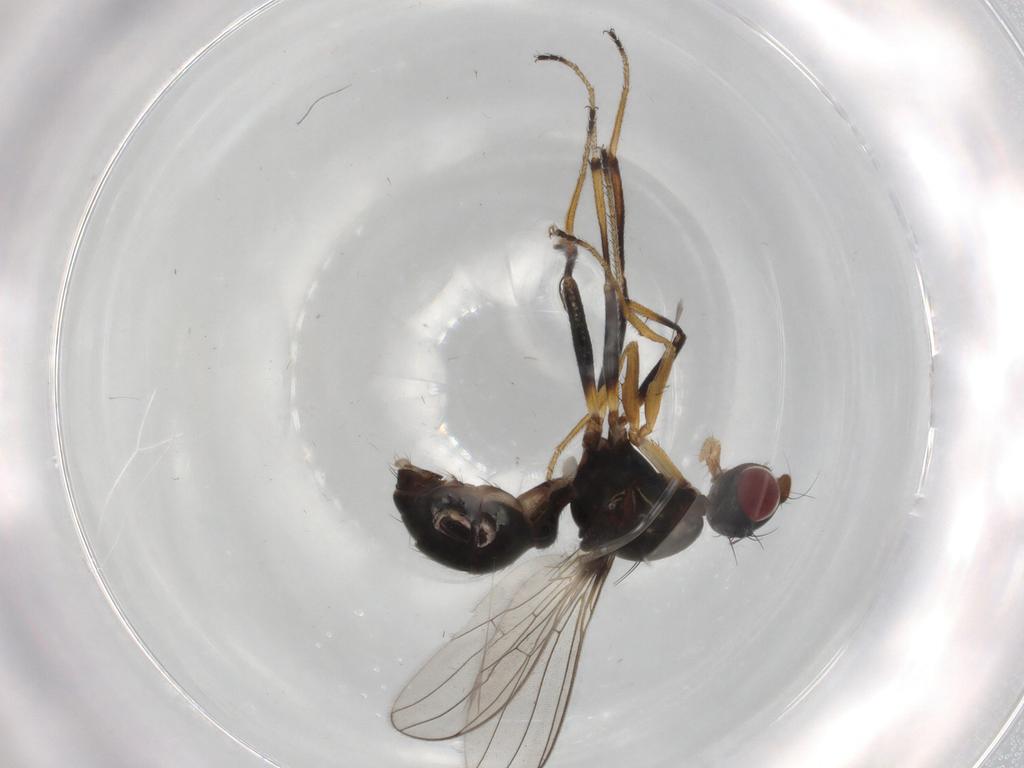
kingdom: Animalia
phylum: Arthropoda
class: Insecta
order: Diptera
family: Sepsidae
